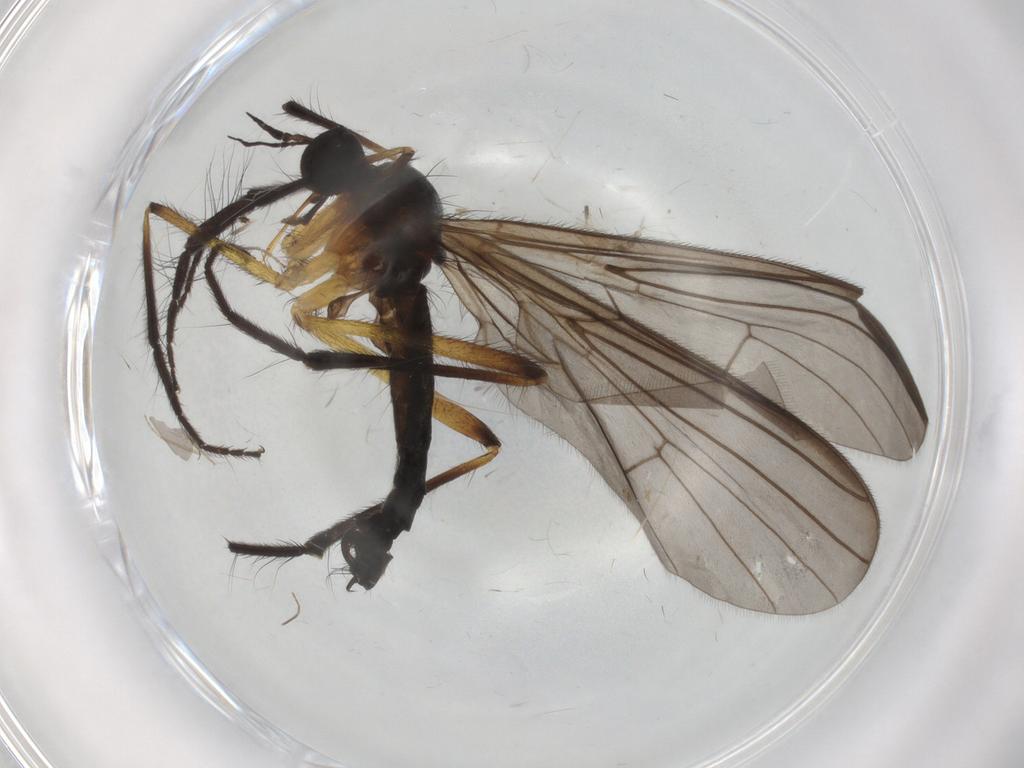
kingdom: Animalia
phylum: Arthropoda
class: Insecta
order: Diptera
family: Empididae
